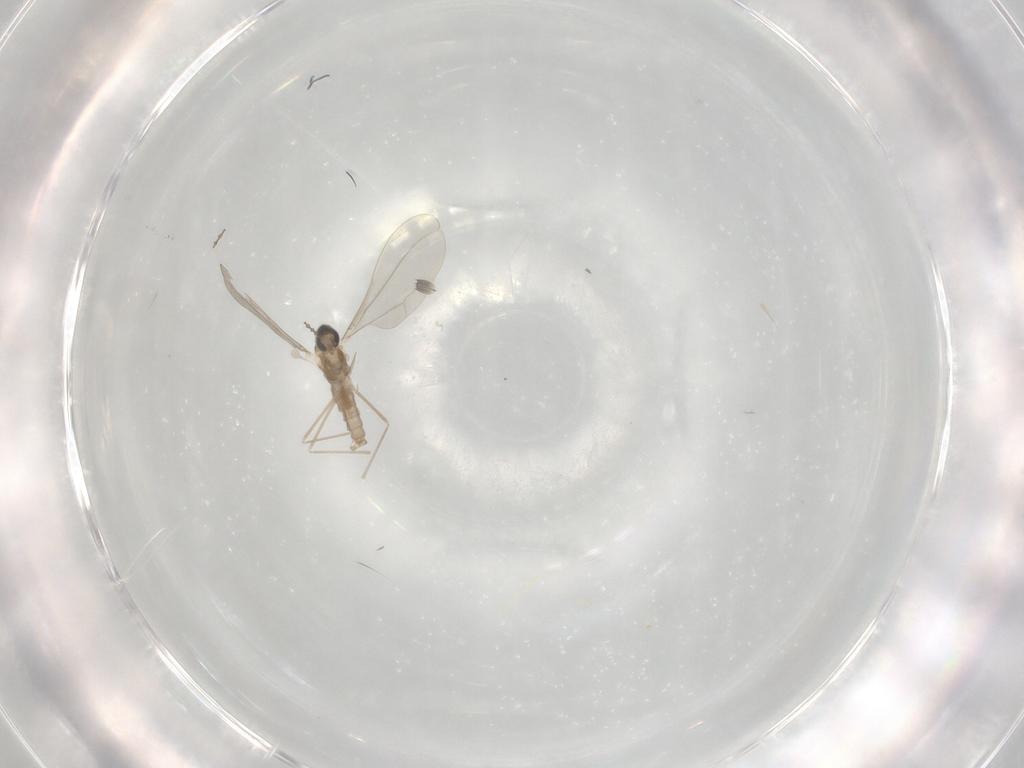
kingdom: Animalia
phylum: Arthropoda
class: Insecta
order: Diptera
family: Cecidomyiidae
